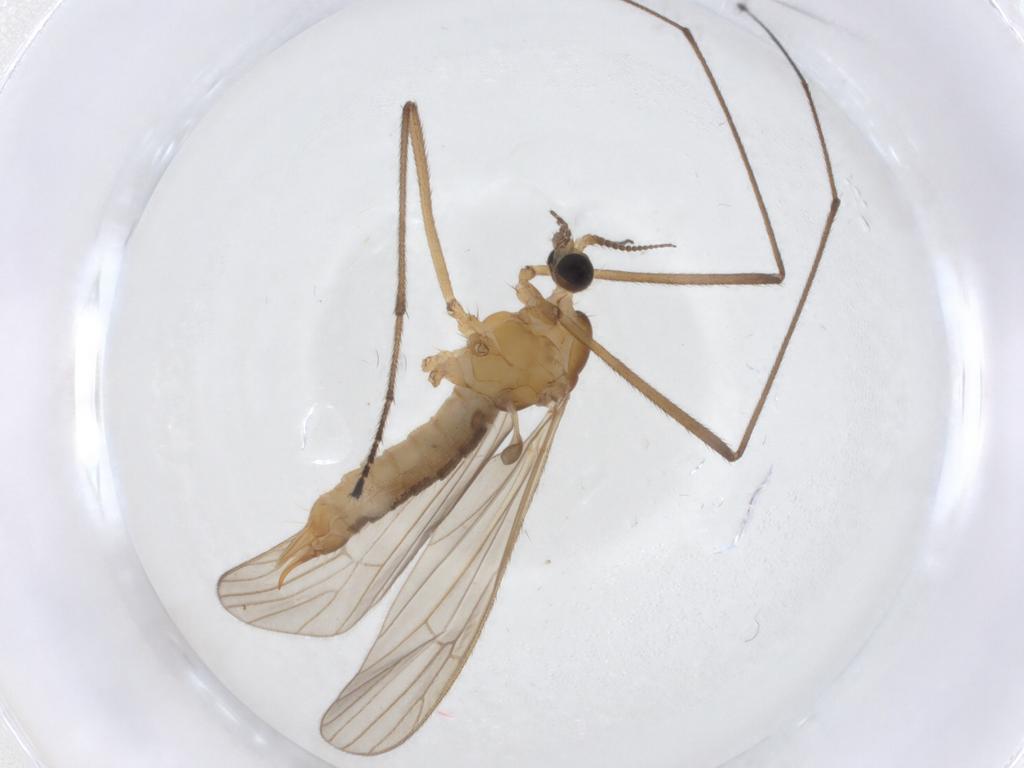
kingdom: Animalia
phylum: Arthropoda
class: Insecta
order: Diptera
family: Limoniidae
